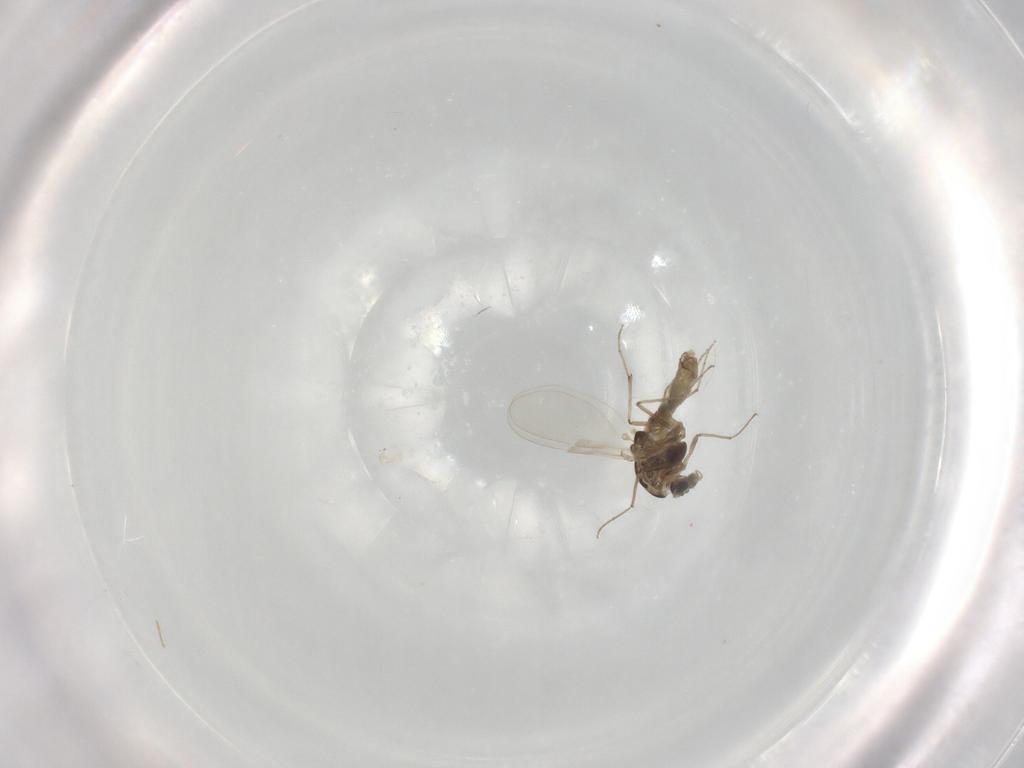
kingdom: Animalia
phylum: Arthropoda
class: Insecta
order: Diptera
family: Chironomidae
